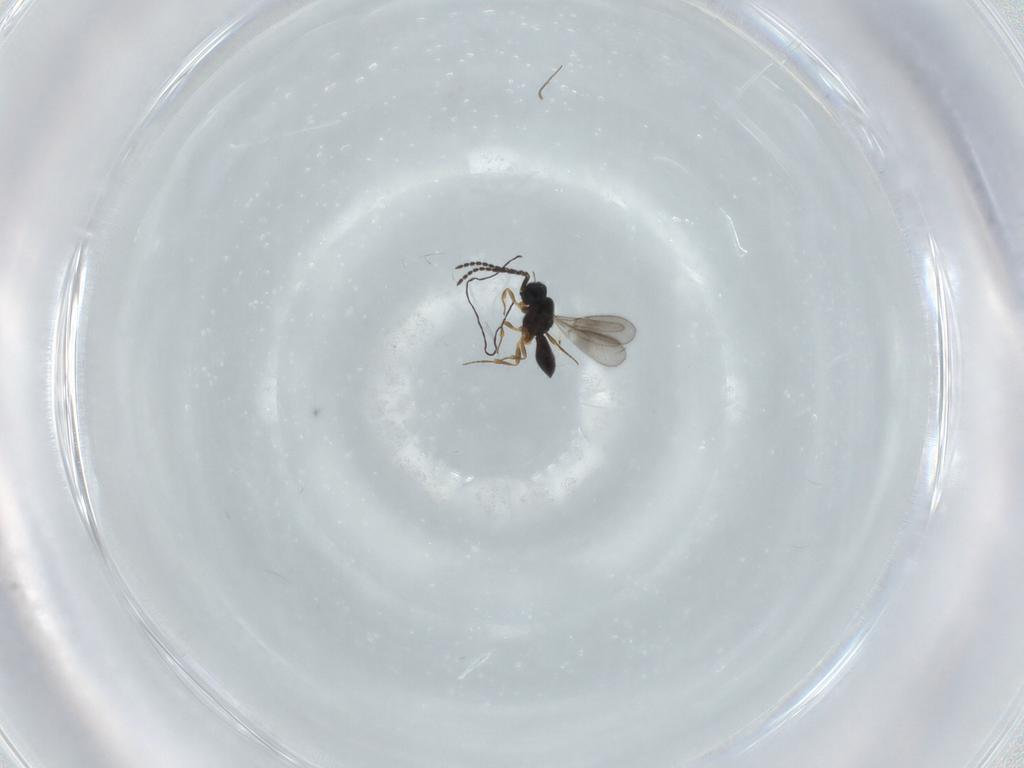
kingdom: Animalia
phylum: Arthropoda
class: Insecta
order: Hymenoptera
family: Scelionidae
